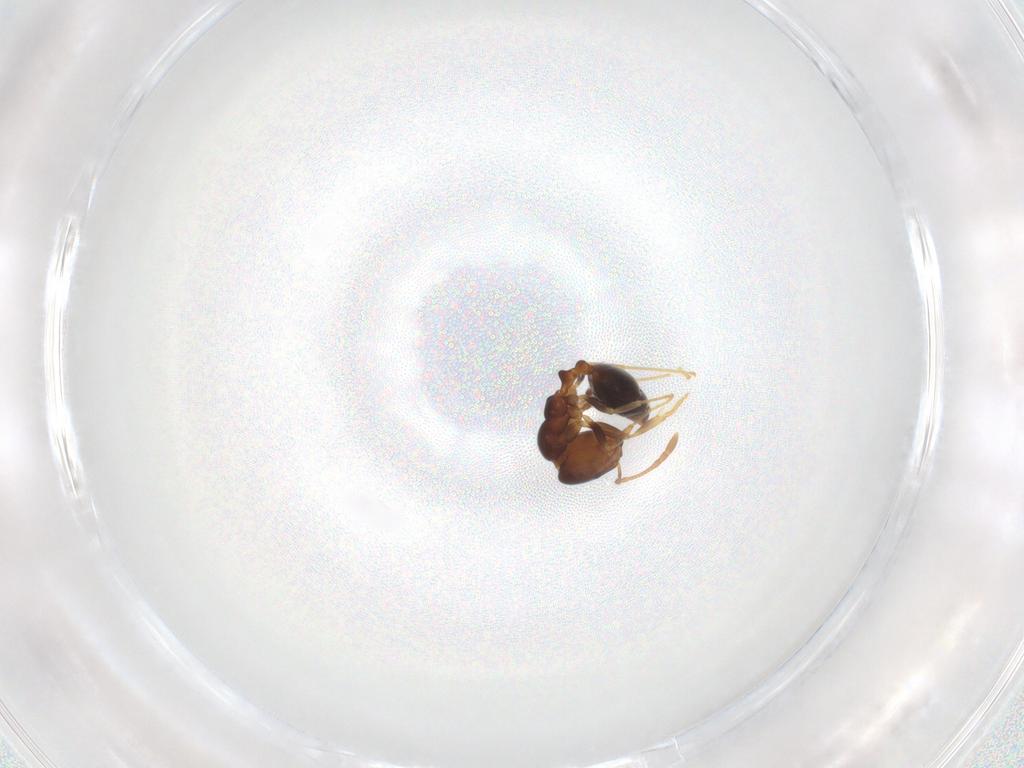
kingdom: Animalia
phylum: Arthropoda
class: Insecta
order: Hymenoptera
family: Formicidae
